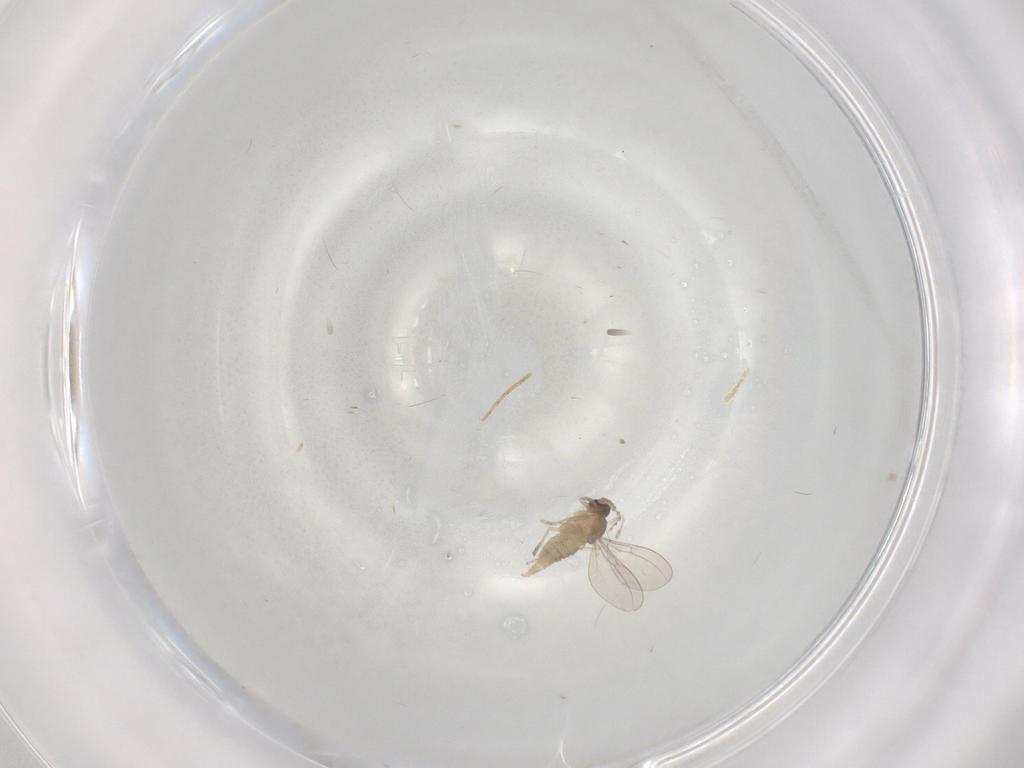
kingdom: Animalia
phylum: Arthropoda
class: Insecta
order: Diptera
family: Cecidomyiidae
